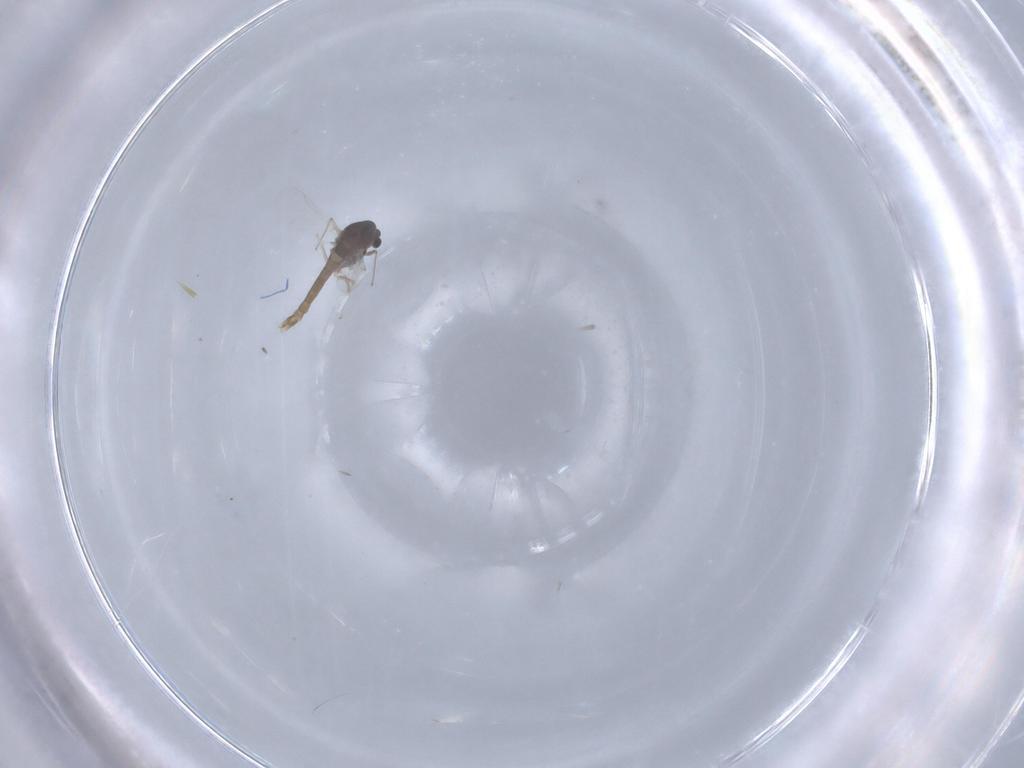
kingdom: Animalia
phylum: Arthropoda
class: Insecta
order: Diptera
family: Chironomidae
